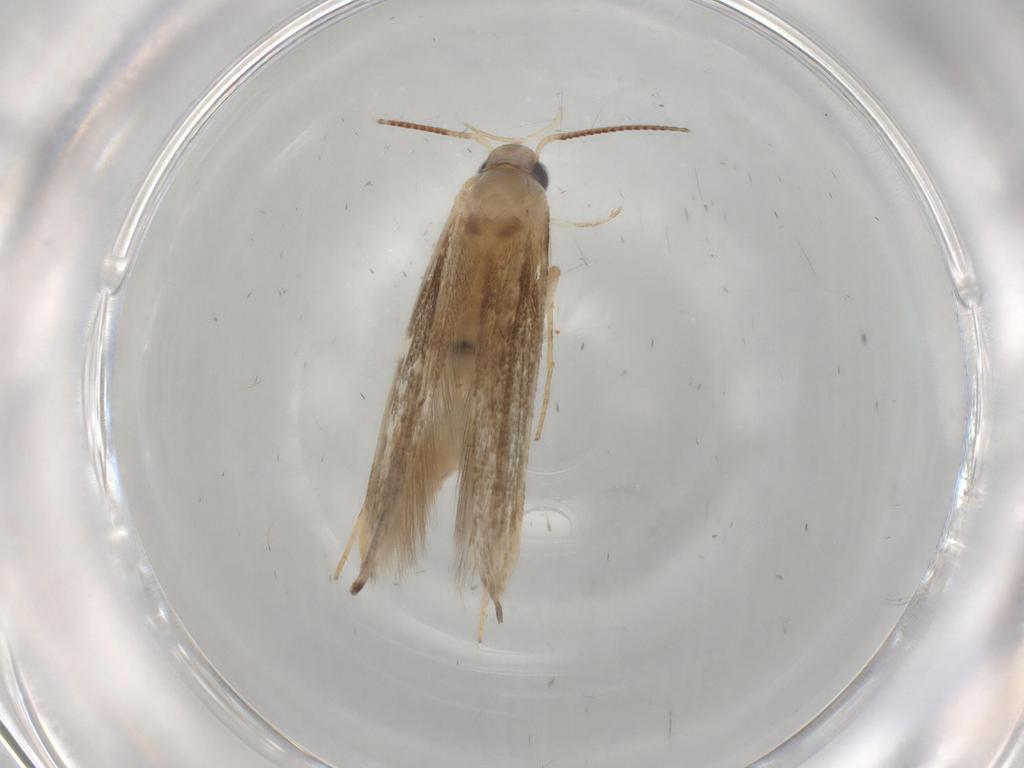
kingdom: Animalia
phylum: Arthropoda
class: Insecta
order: Lepidoptera
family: Gelechiidae
